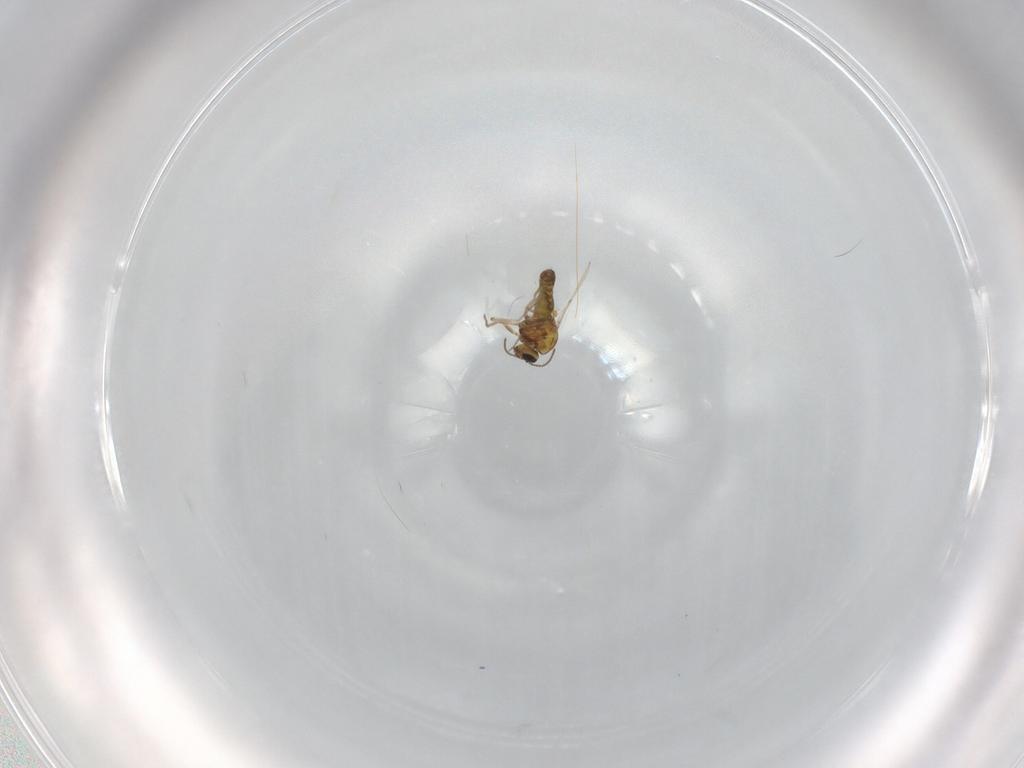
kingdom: Animalia
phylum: Arthropoda
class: Insecta
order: Diptera
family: Ceratopogonidae
